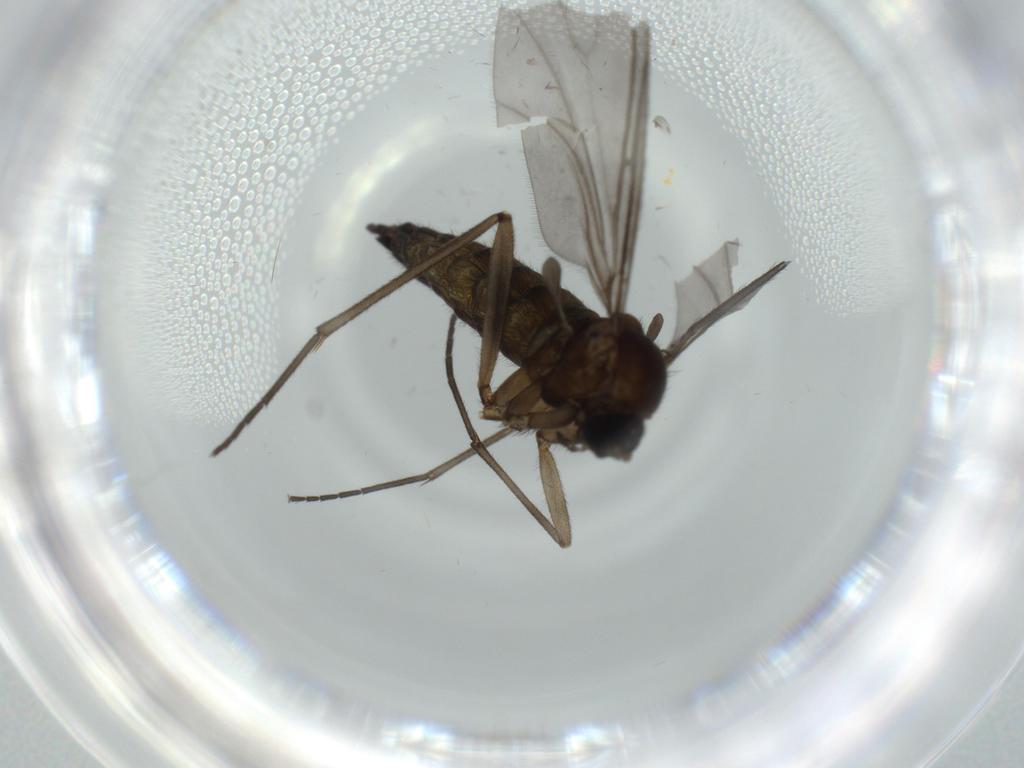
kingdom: Animalia
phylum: Arthropoda
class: Insecta
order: Diptera
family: Sciaridae
